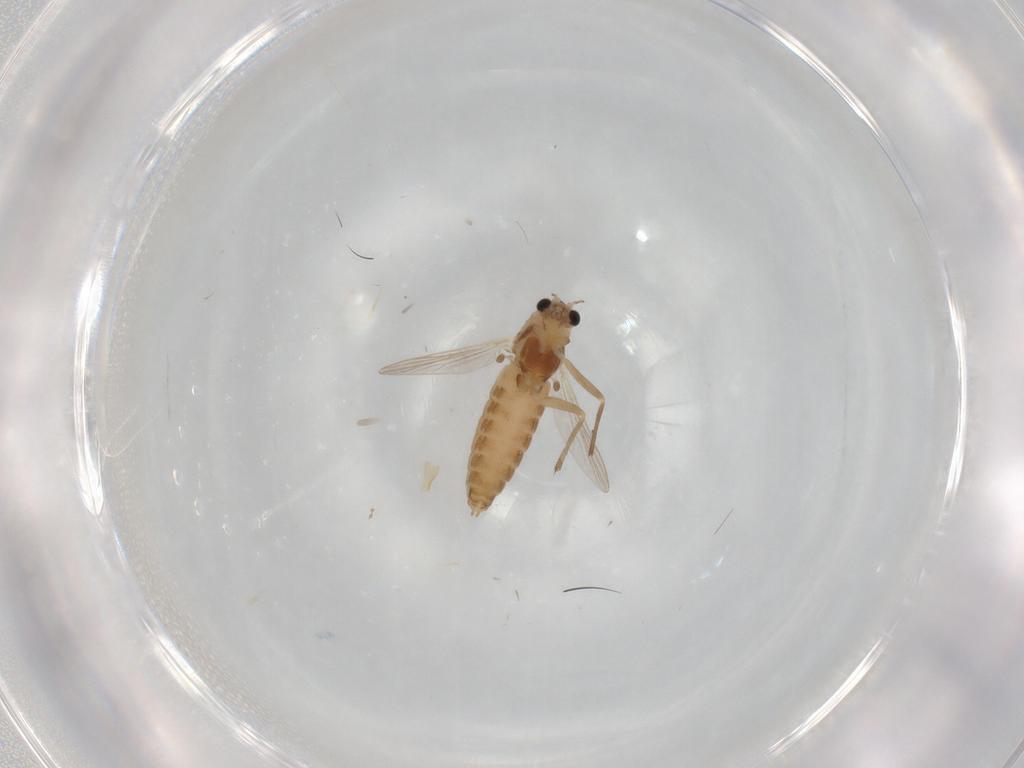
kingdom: Animalia
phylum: Arthropoda
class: Insecta
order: Diptera
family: Chironomidae
